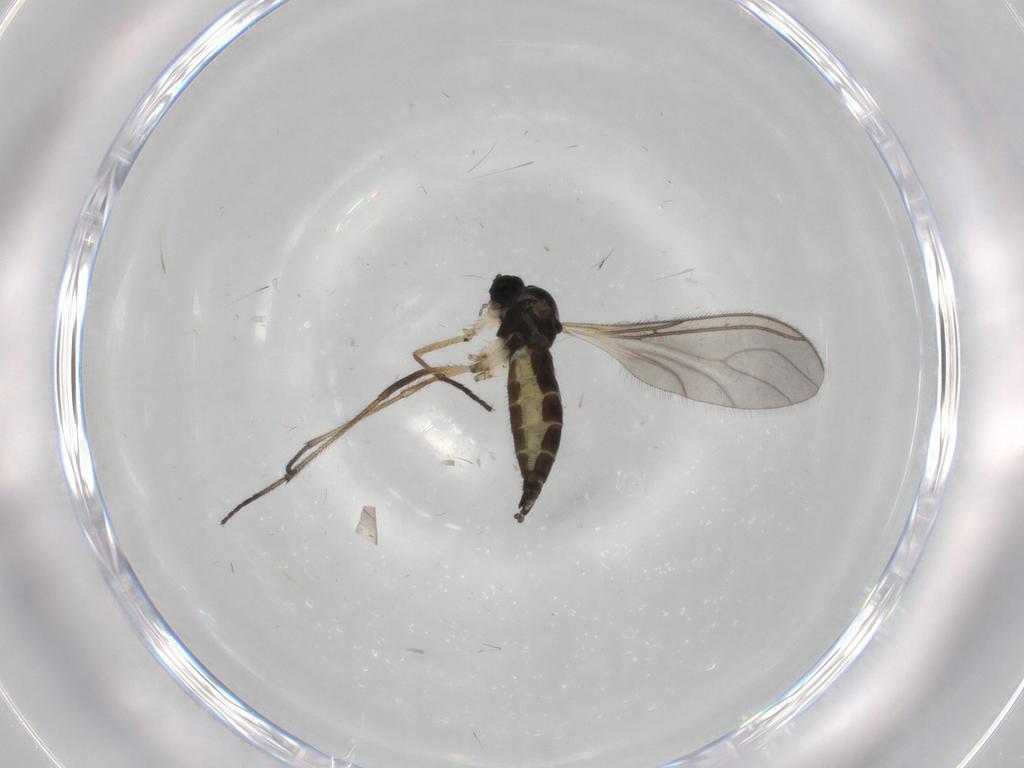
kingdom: Animalia
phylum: Arthropoda
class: Insecta
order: Diptera
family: Sciaridae
